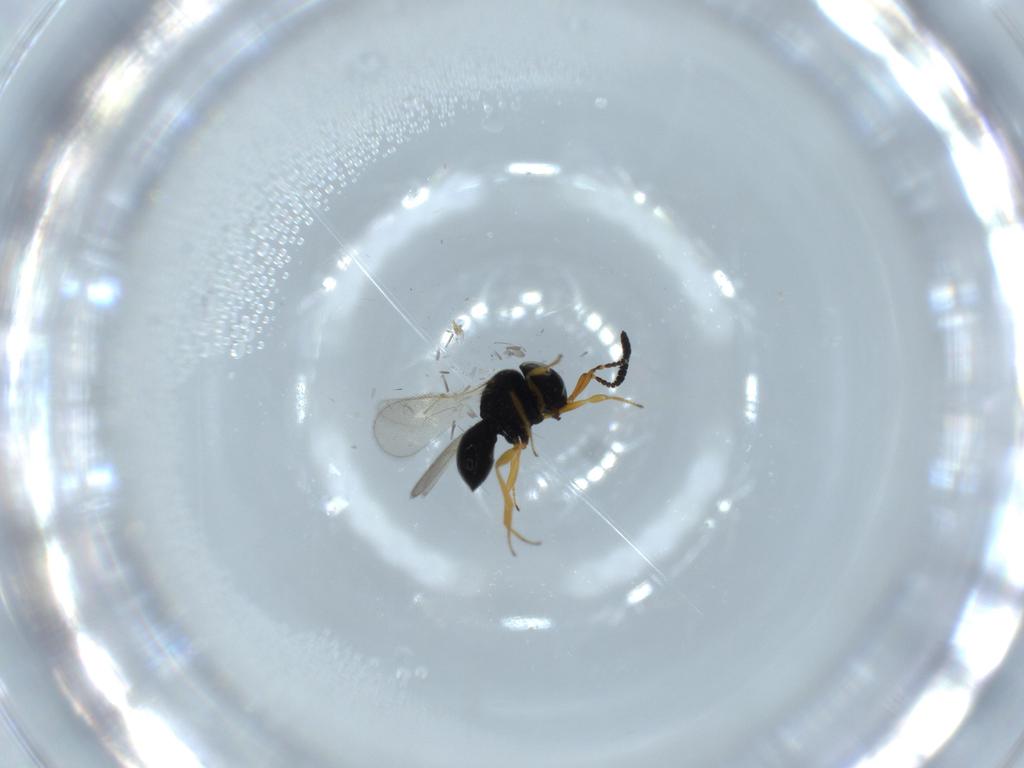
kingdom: Animalia
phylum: Arthropoda
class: Insecta
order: Hymenoptera
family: Scelionidae
